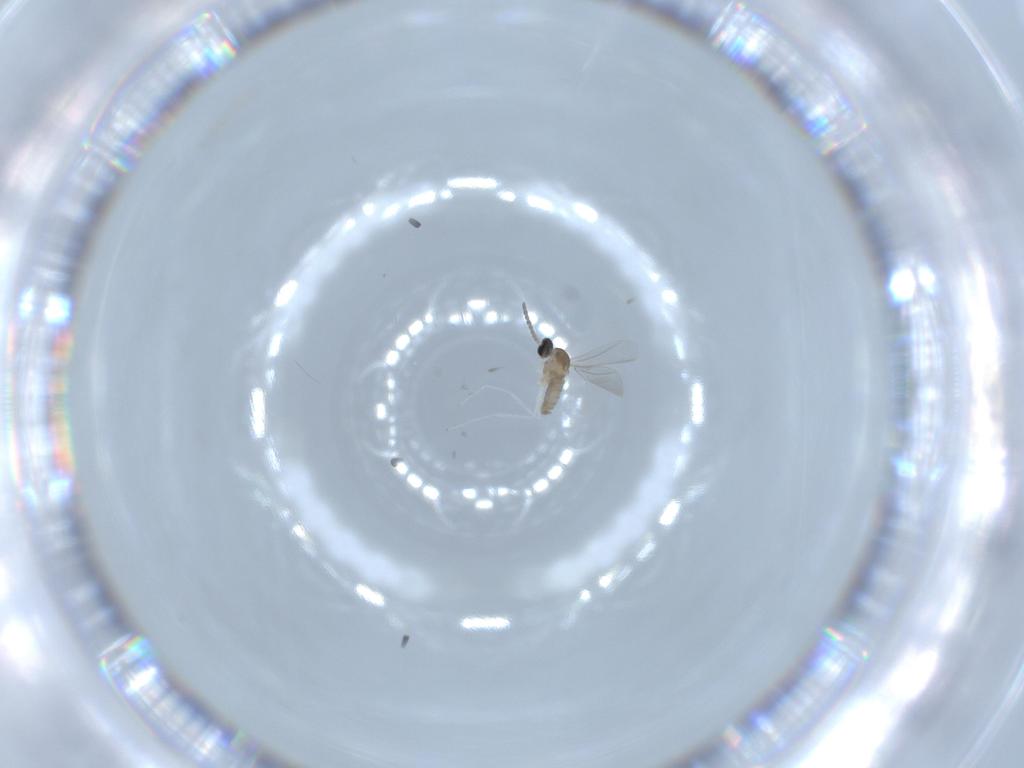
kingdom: Animalia
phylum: Arthropoda
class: Insecta
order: Diptera
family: Cecidomyiidae
